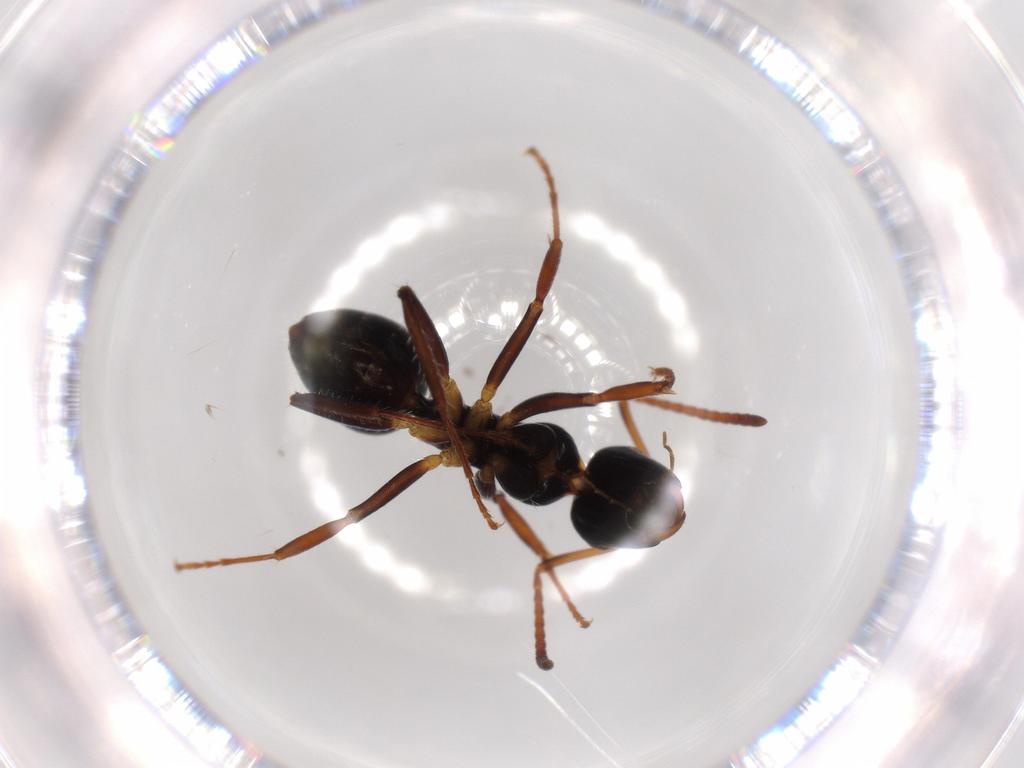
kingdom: Animalia
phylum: Arthropoda
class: Insecta
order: Hymenoptera
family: Formicidae
